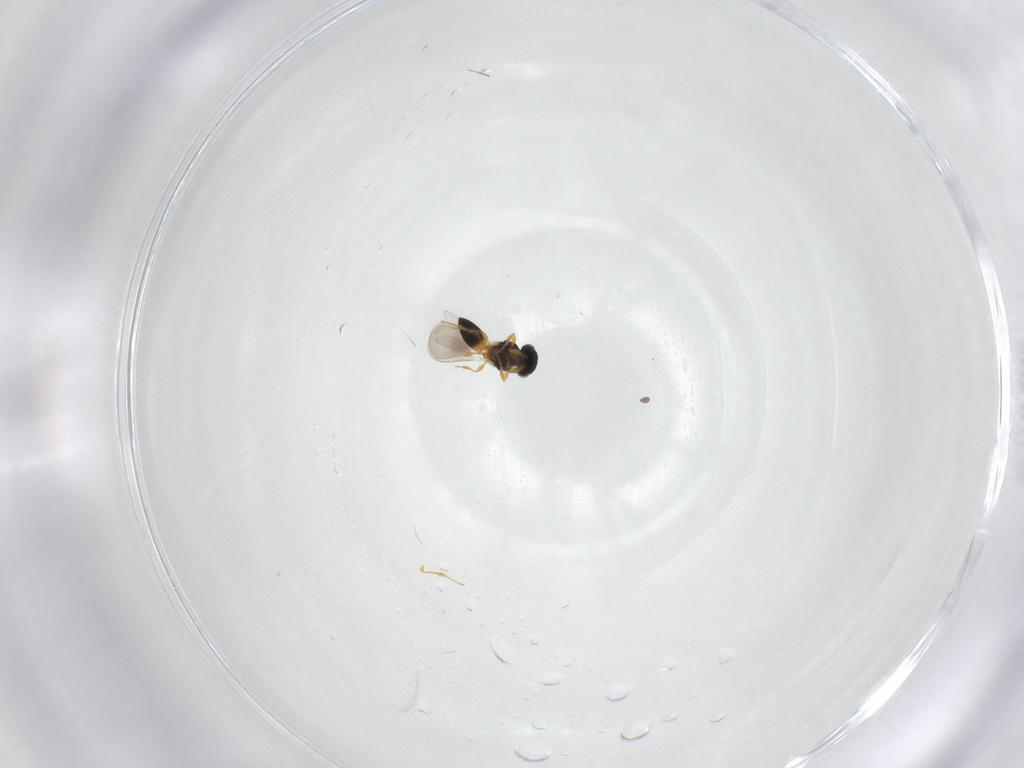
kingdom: Animalia
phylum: Arthropoda
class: Insecta
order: Hymenoptera
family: Platygastridae
